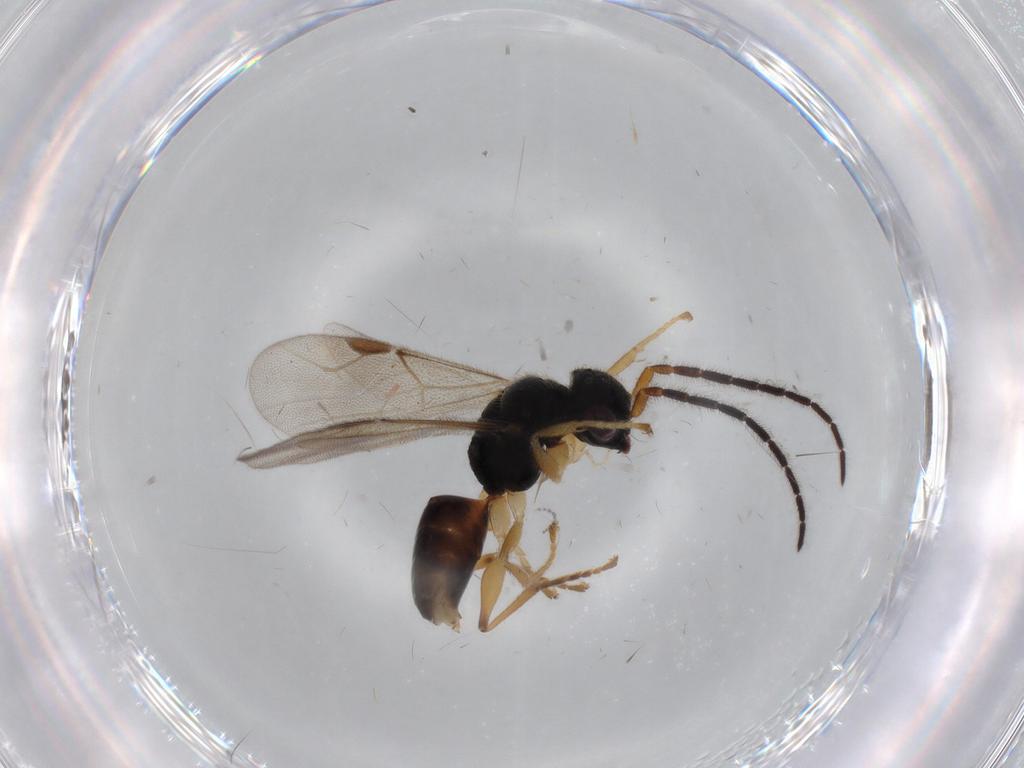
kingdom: Animalia
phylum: Arthropoda
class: Insecta
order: Hymenoptera
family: Dryinidae
